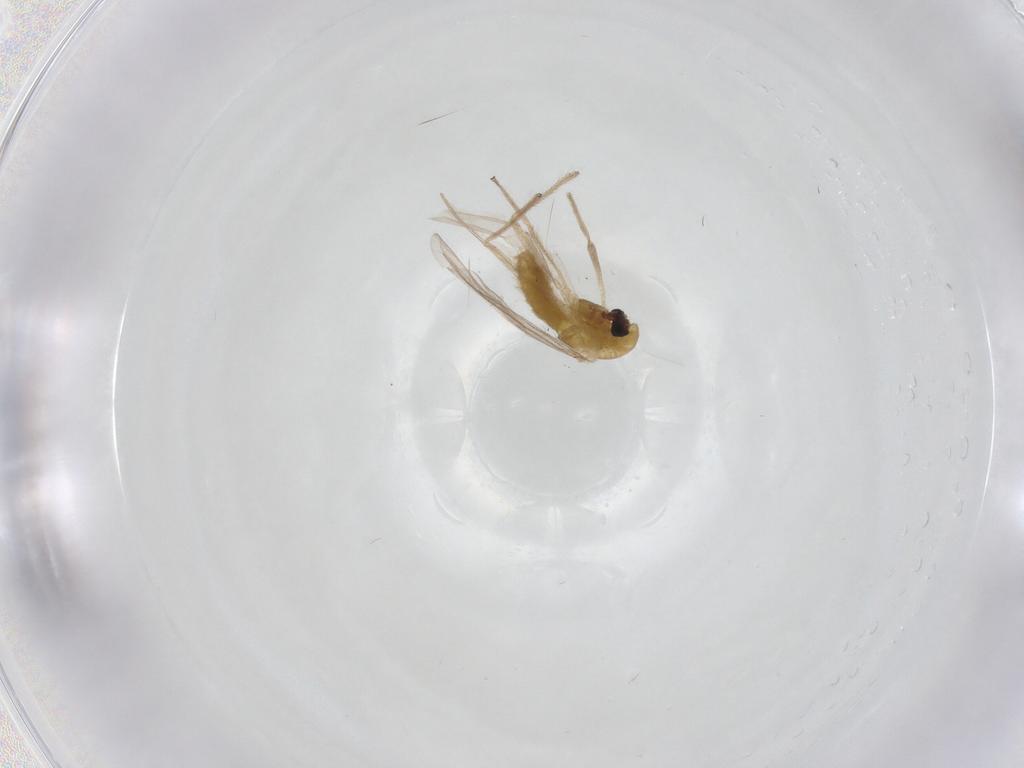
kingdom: Animalia
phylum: Arthropoda
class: Insecta
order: Diptera
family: Chironomidae
